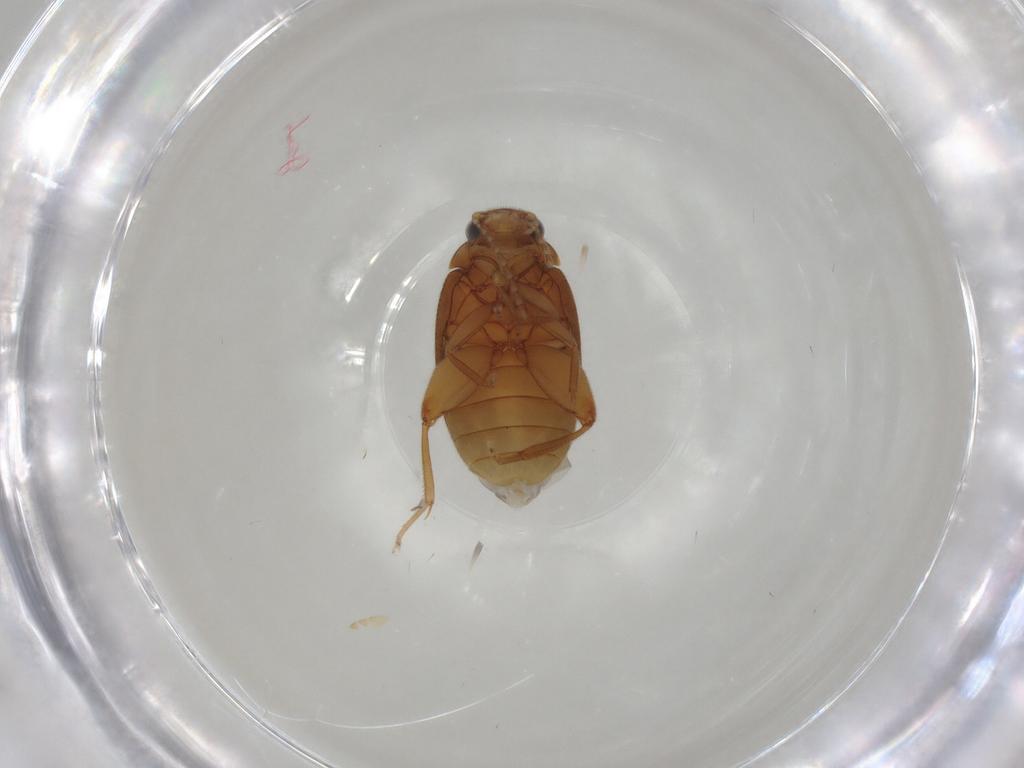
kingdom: Animalia
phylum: Arthropoda
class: Insecta
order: Coleoptera
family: Scirtidae
